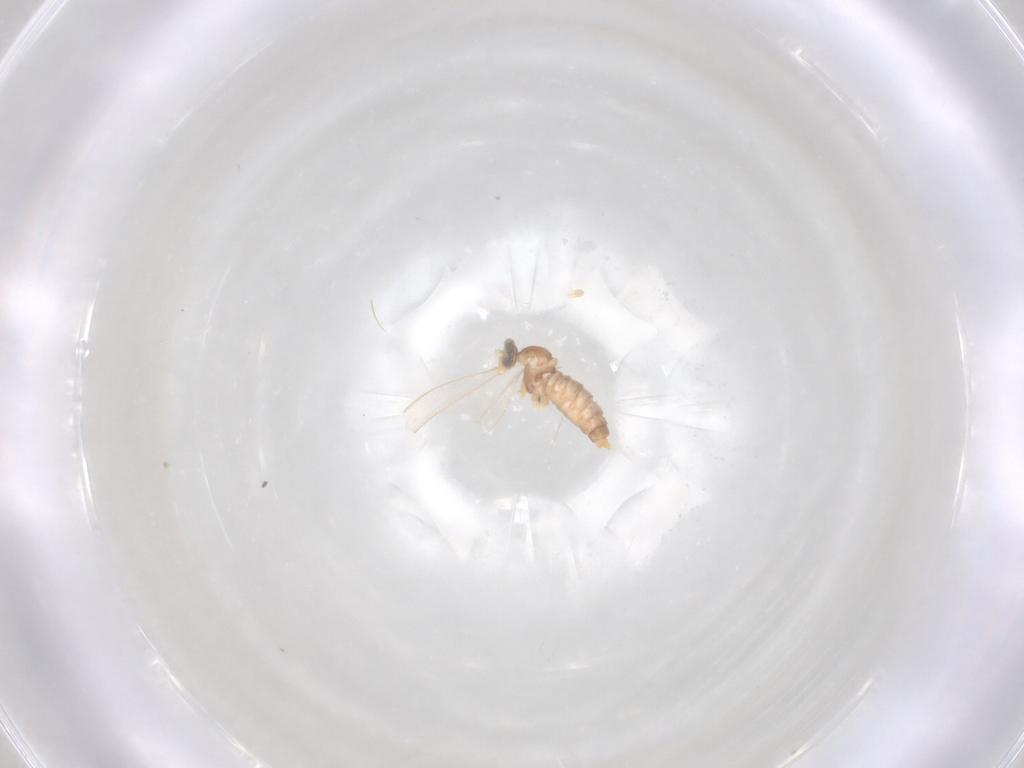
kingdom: Animalia
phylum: Arthropoda
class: Insecta
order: Diptera
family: Cecidomyiidae
